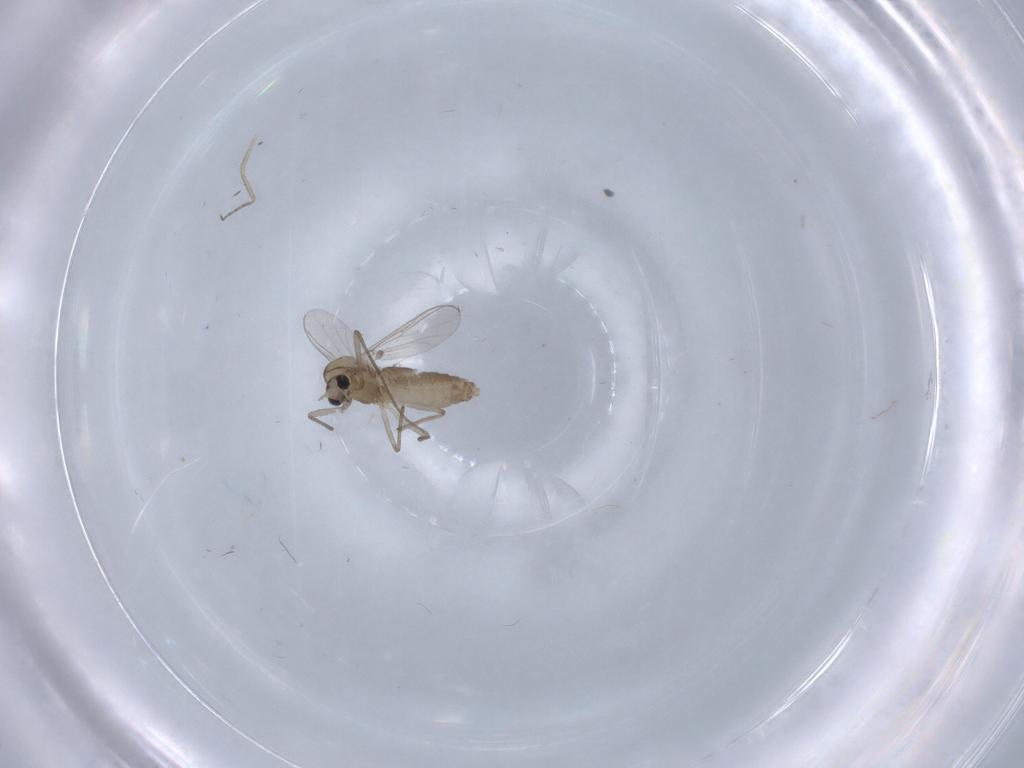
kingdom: Animalia
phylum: Arthropoda
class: Insecta
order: Diptera
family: Chironomidae
